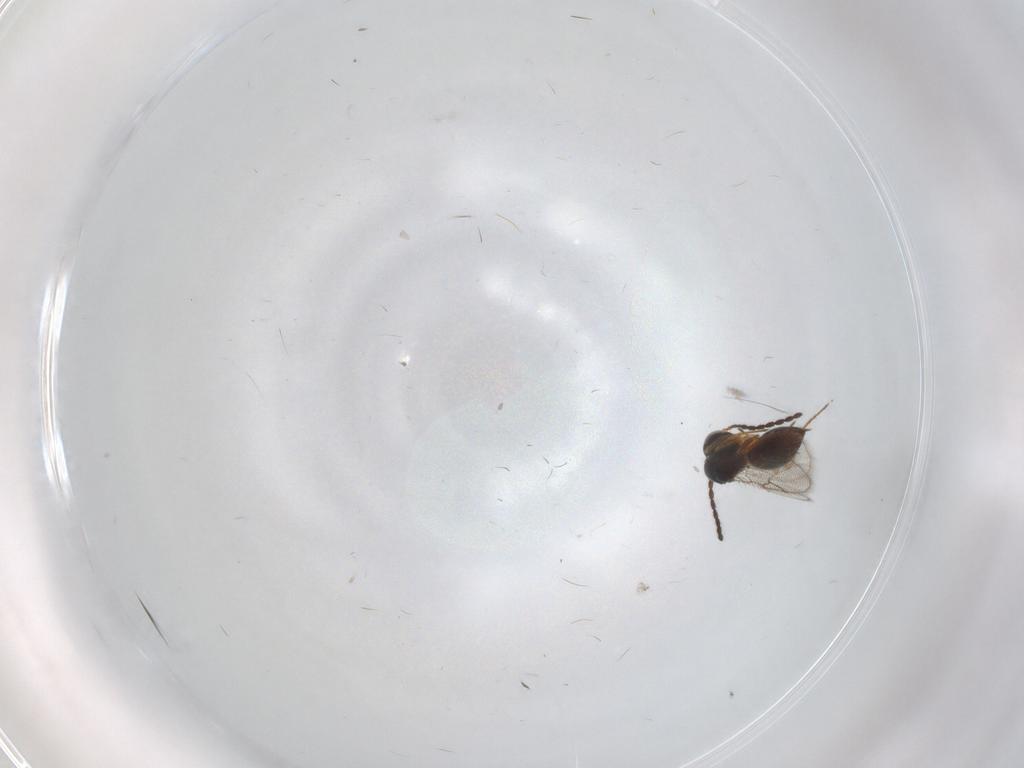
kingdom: Animalia
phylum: Arthropoda
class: Insecta
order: Hymenoptera
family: Figitidae
